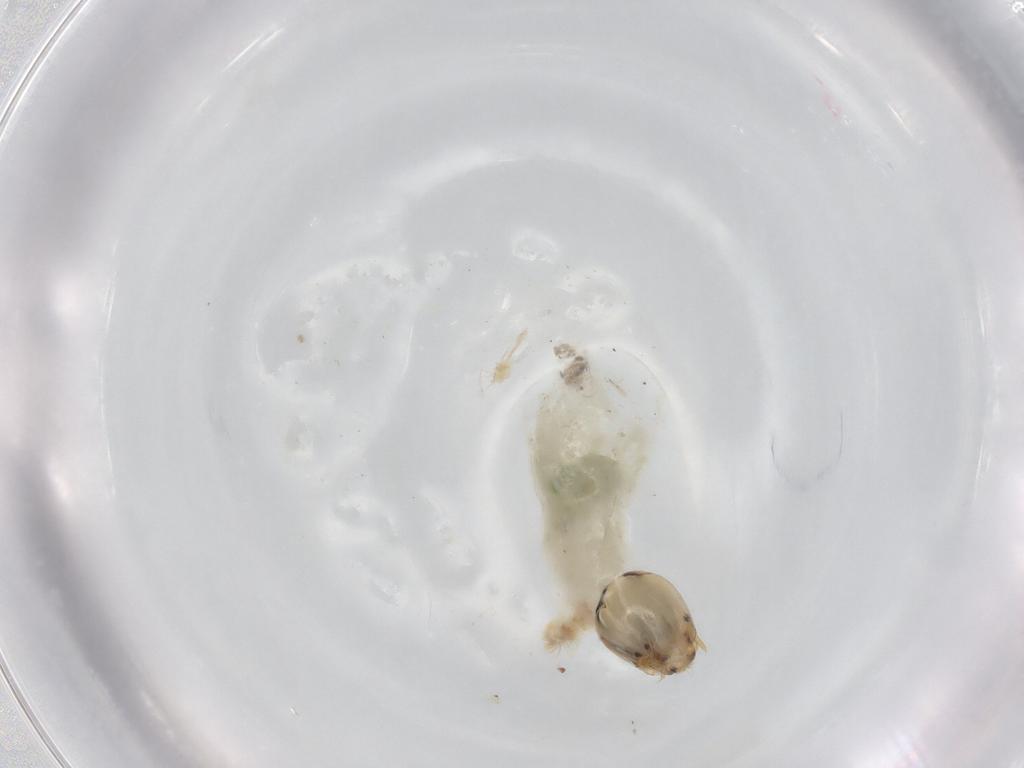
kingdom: Animalia
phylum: Arthropoda
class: Insecta
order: Diptera
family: Chironomidae
